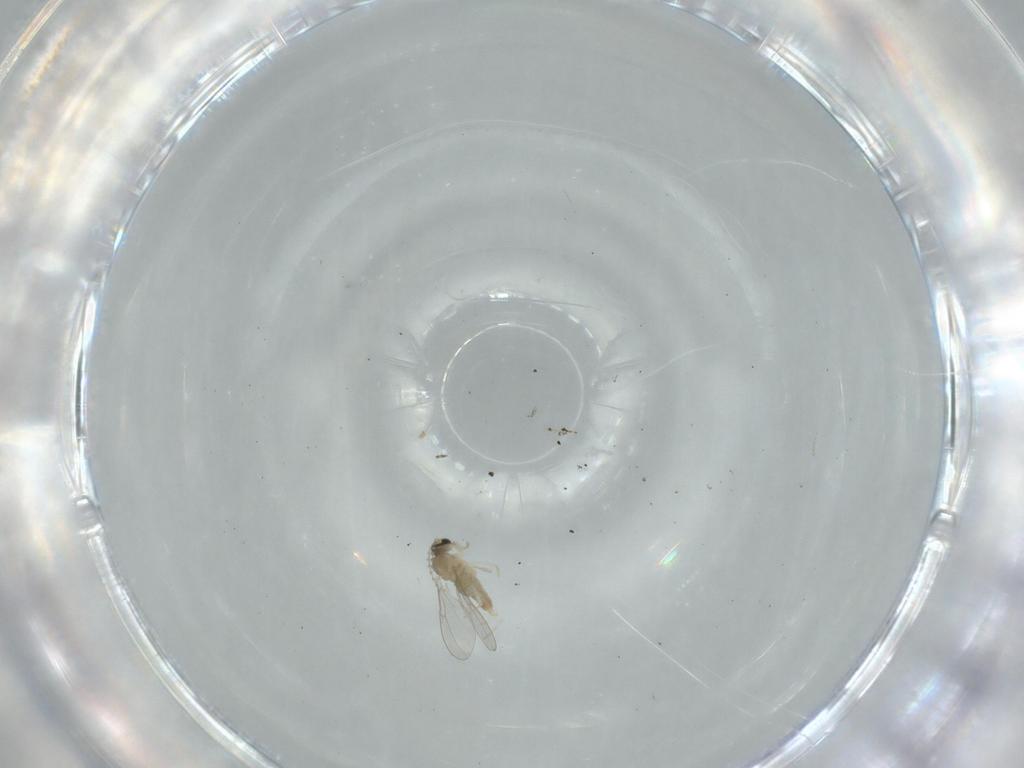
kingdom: Animalia
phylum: Arthropoda
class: Insecta
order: Diptera
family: Cecidomyiidae
